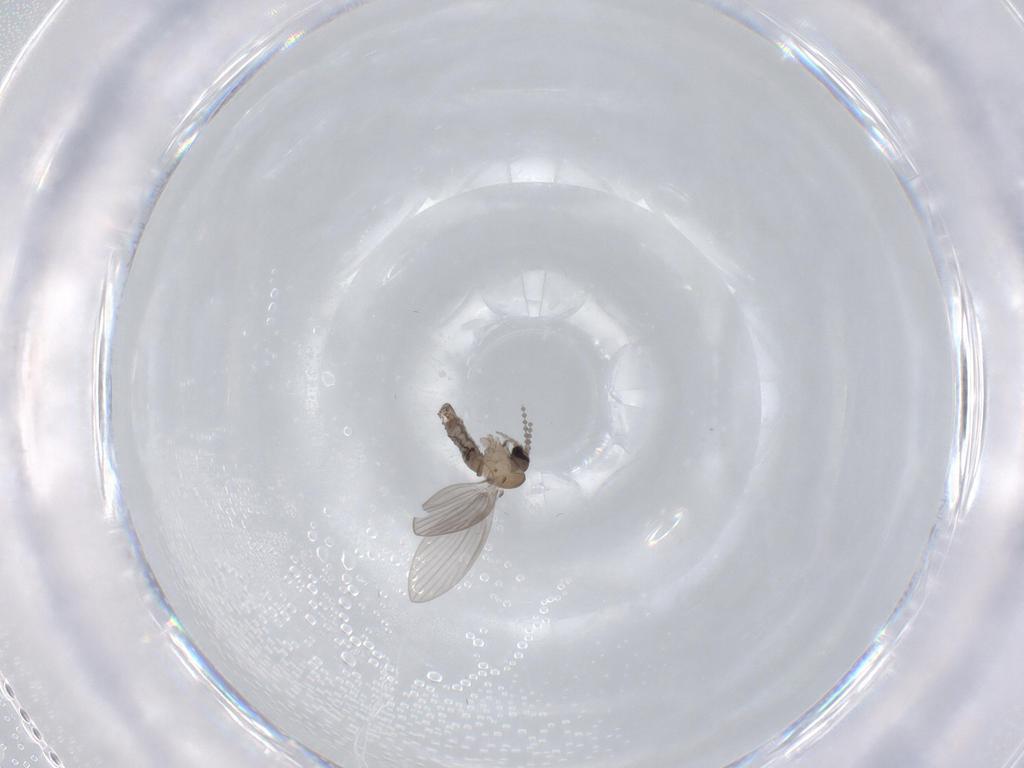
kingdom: Animalia
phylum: Arthropoda
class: Insecta
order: Diptera
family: Psychodidae
